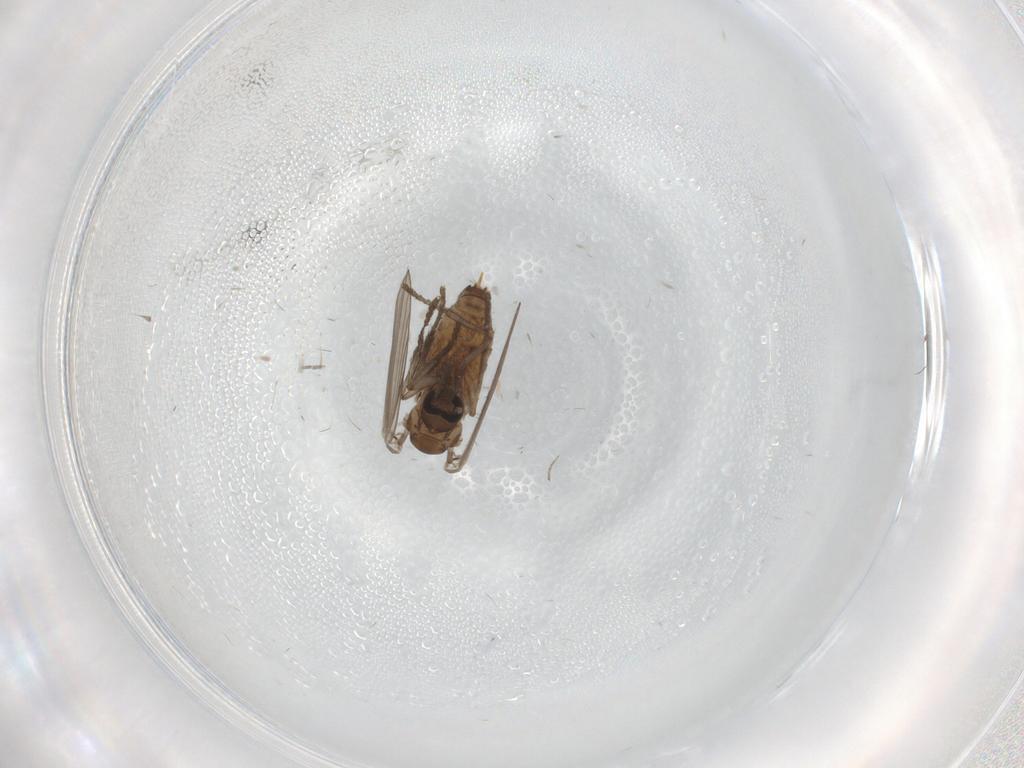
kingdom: Animalia
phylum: Arthropoda
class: Insecta
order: Diptera
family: Psychodidae
